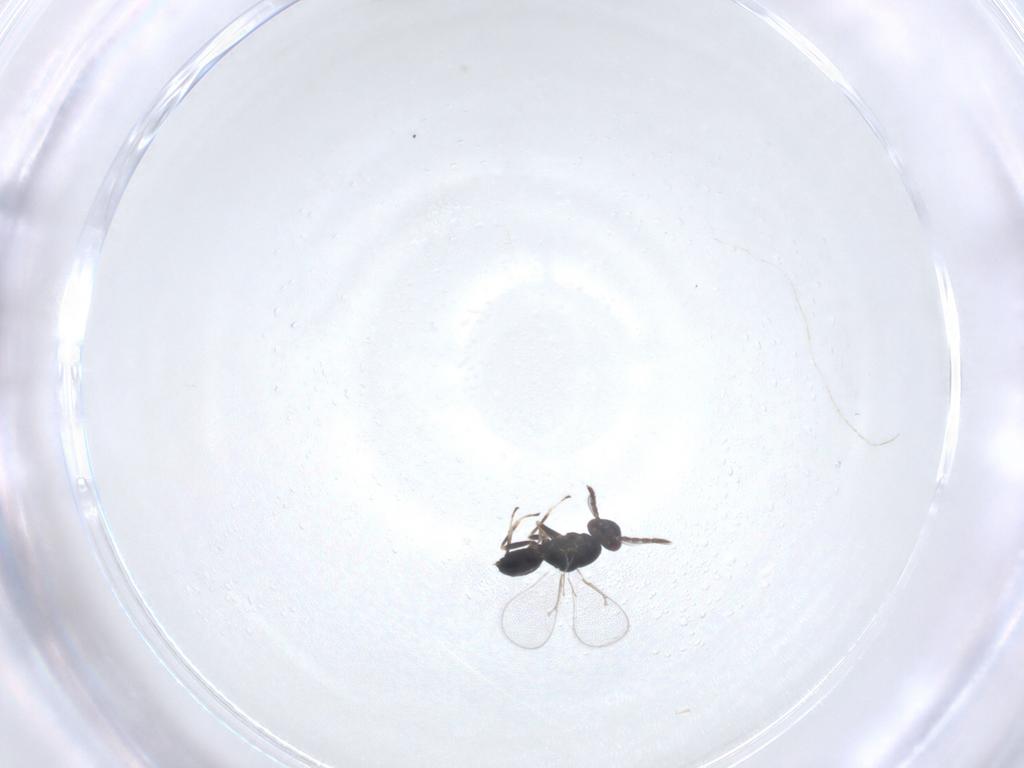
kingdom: Animalia
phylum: Arthropoda
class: Insecta
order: Hymenoptera
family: Eulophidae
